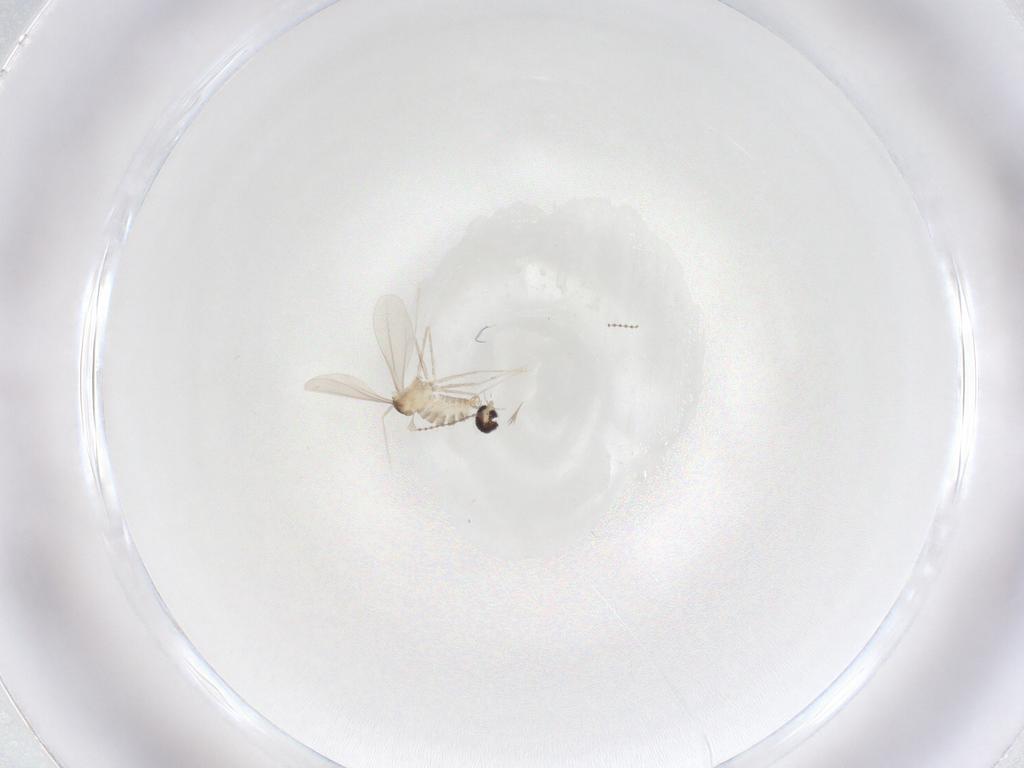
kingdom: Animalia
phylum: Arthropoda
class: Insecta
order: Diptera
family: Cecidomyiidae
